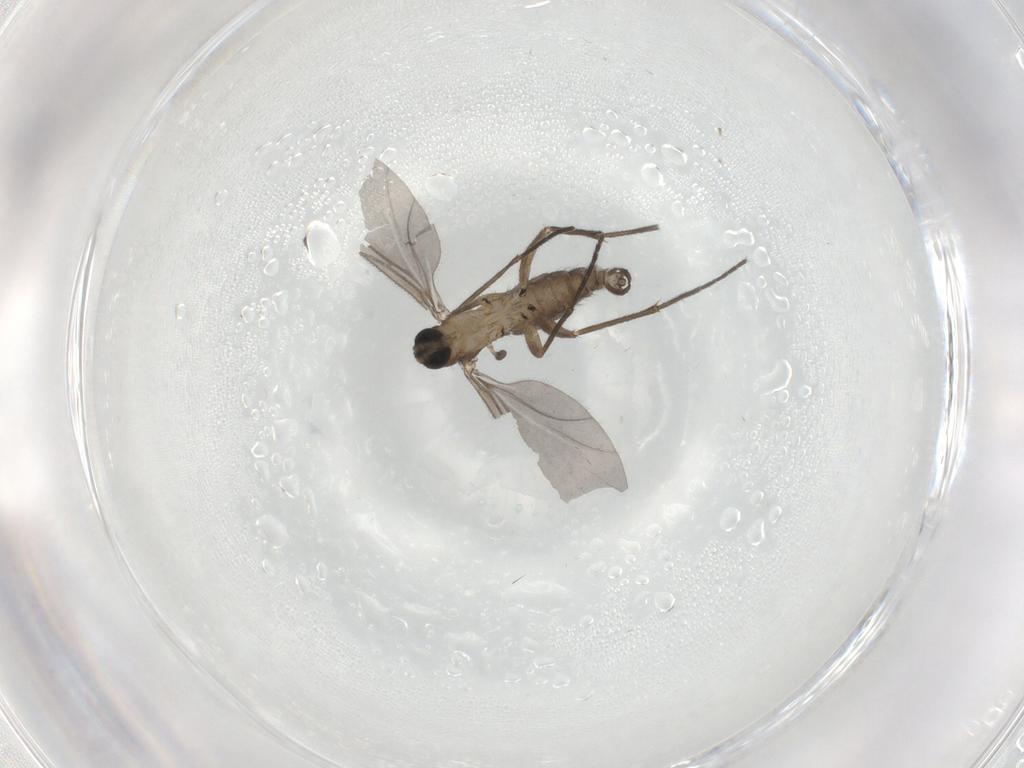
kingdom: Animalia
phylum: Arthropoda
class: Insecta
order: Diptera
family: Sciaridae
